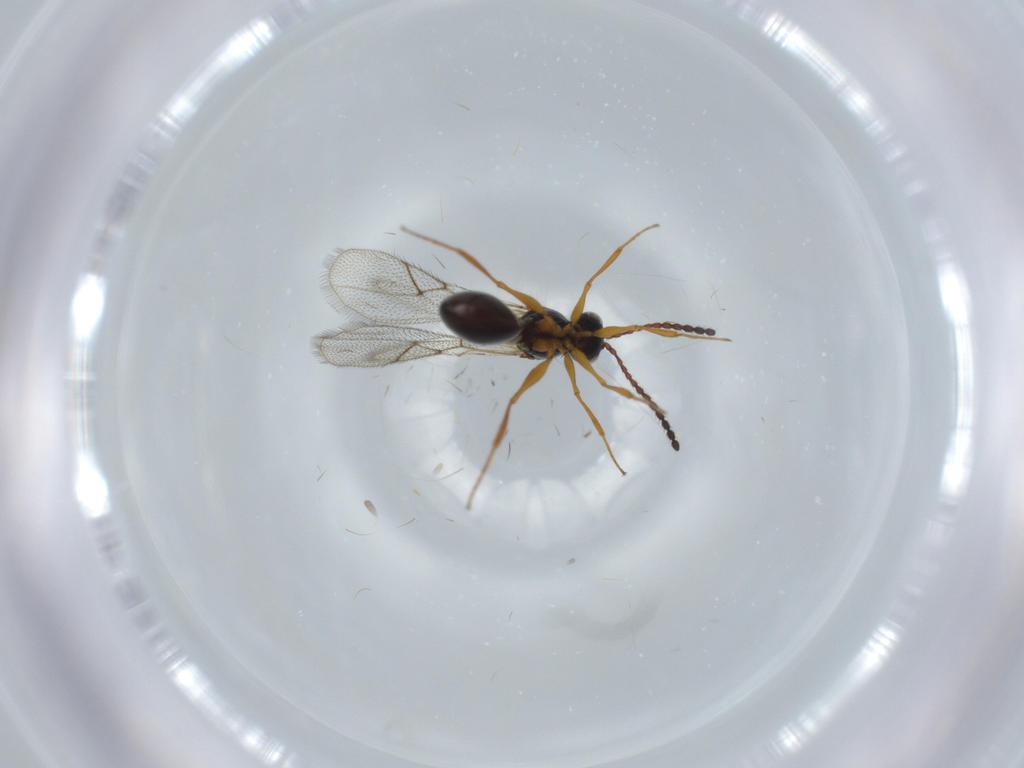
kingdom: Animalia
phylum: Arthropoda
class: Insecta
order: Hymenoptera
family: Figitidae
